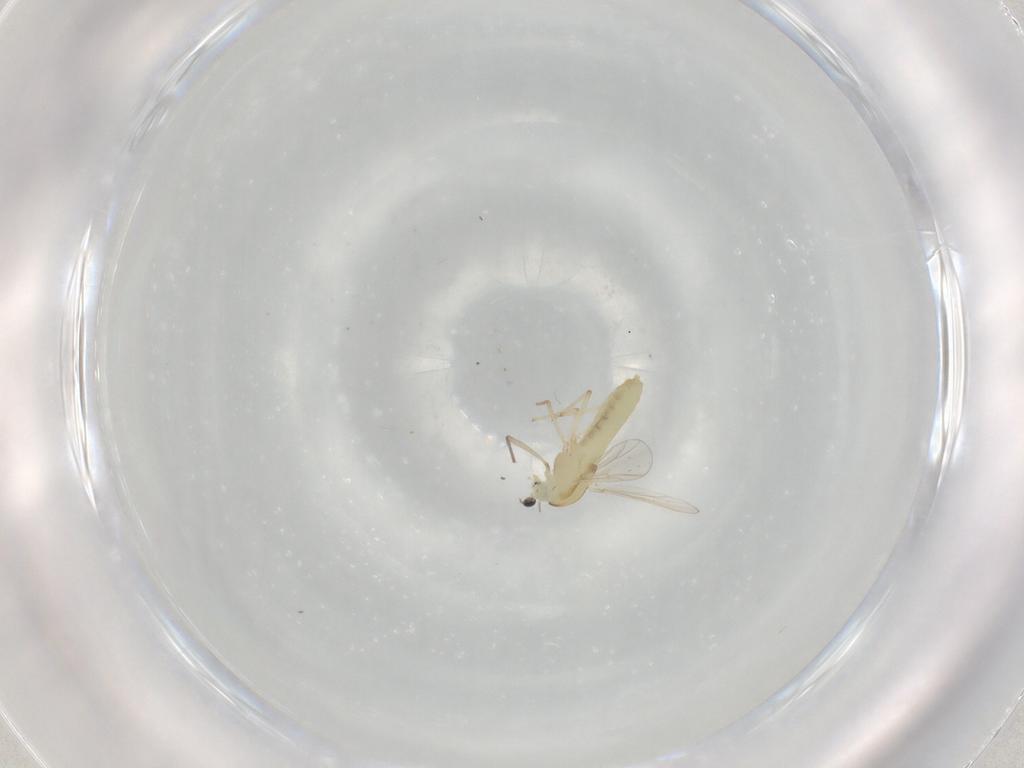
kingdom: Animalia
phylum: Arthropoda
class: Insecta
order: Diptera
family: Chironomidae
